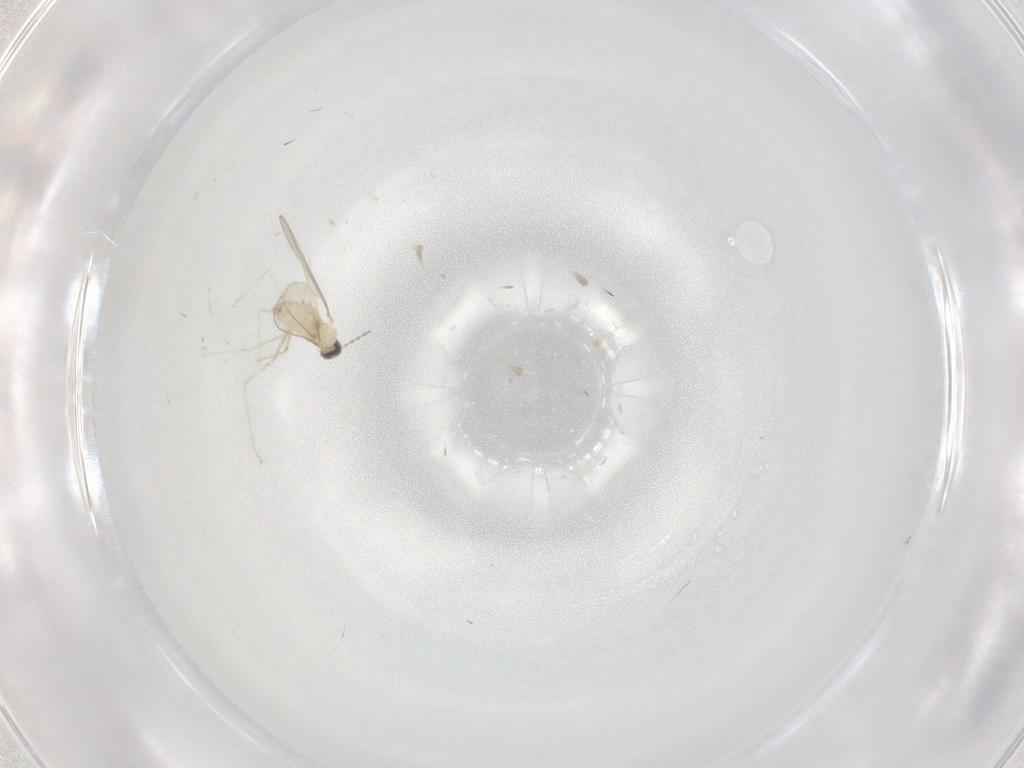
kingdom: Animalia
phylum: Arthropoda
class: Insecta
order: Diptera
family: Cecidomyiidae
